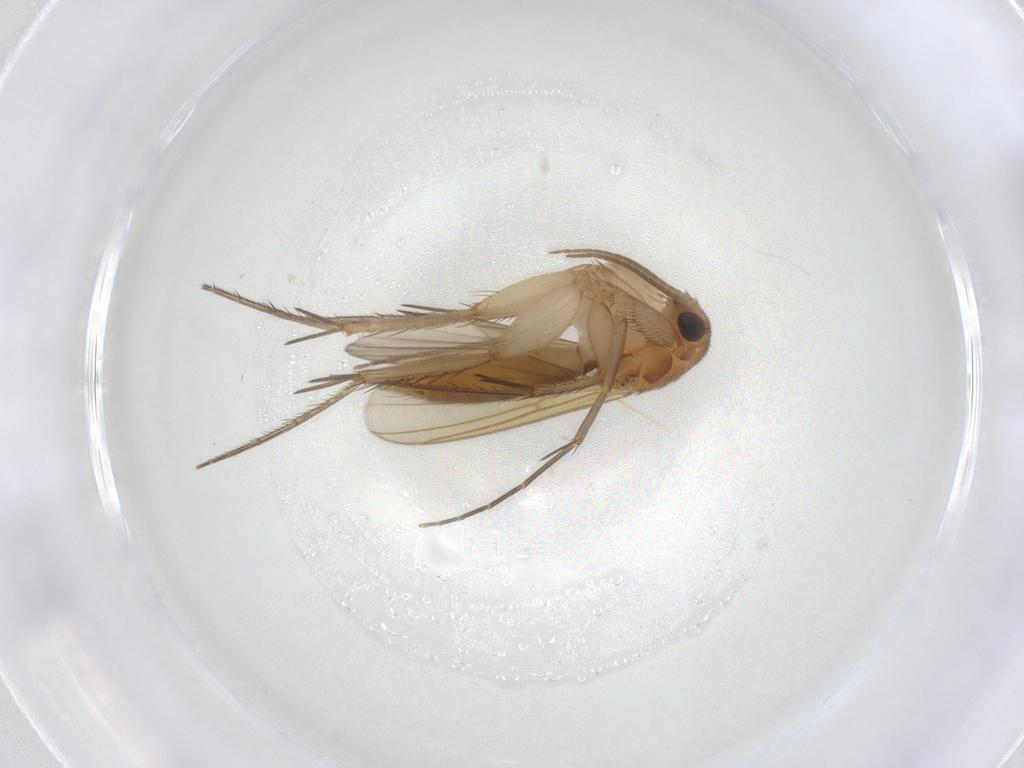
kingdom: Animalia
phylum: Arthropoda
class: Insecta
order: Diptera
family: Mycetophilidae
